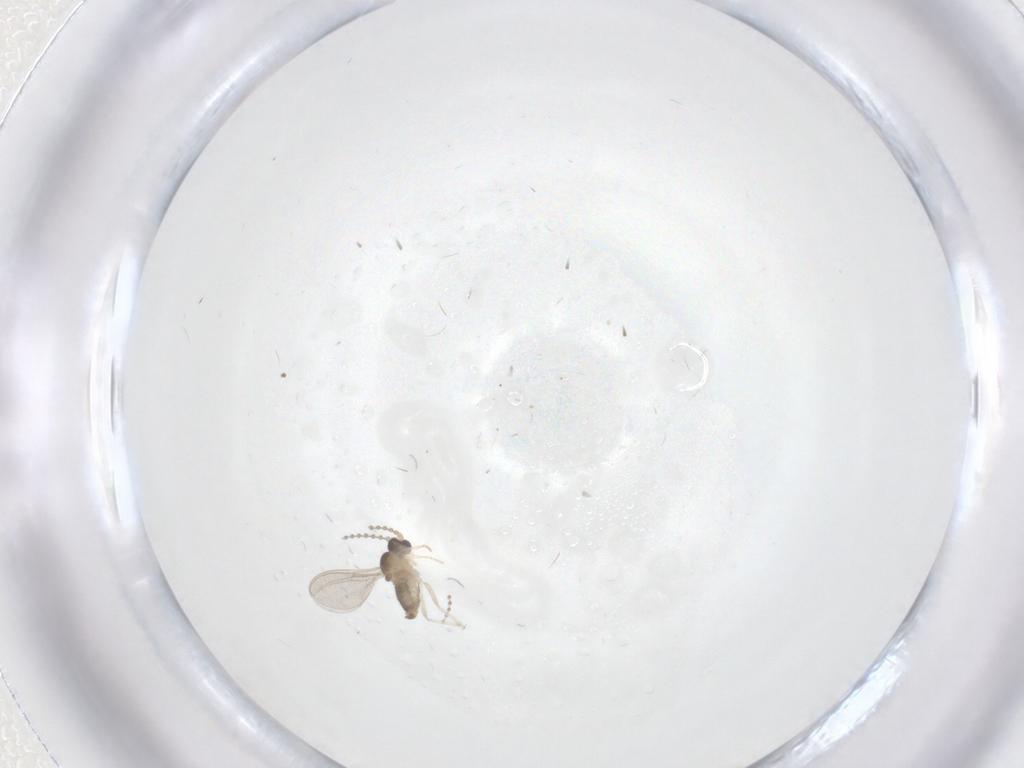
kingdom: Animalia
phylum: Arthropoda
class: Insecta
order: Diptera
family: Cecidomyiidae
